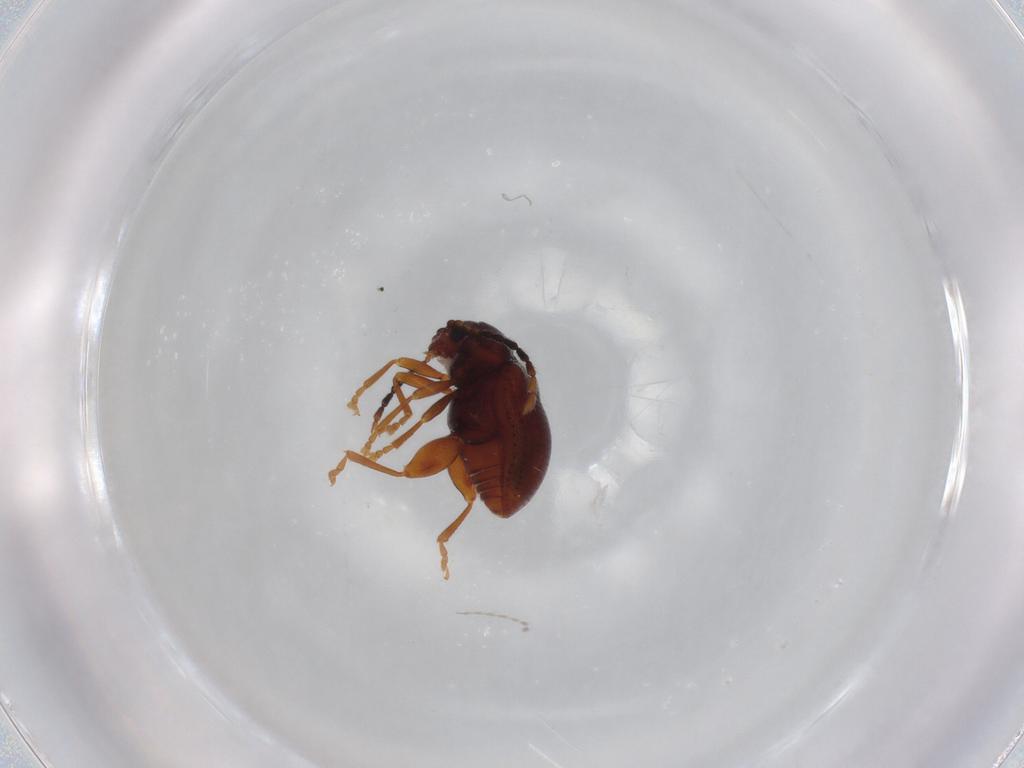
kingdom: Animalia
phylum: Arthropoda
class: Insecta
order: Coleoptera
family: Chrysomelidae
